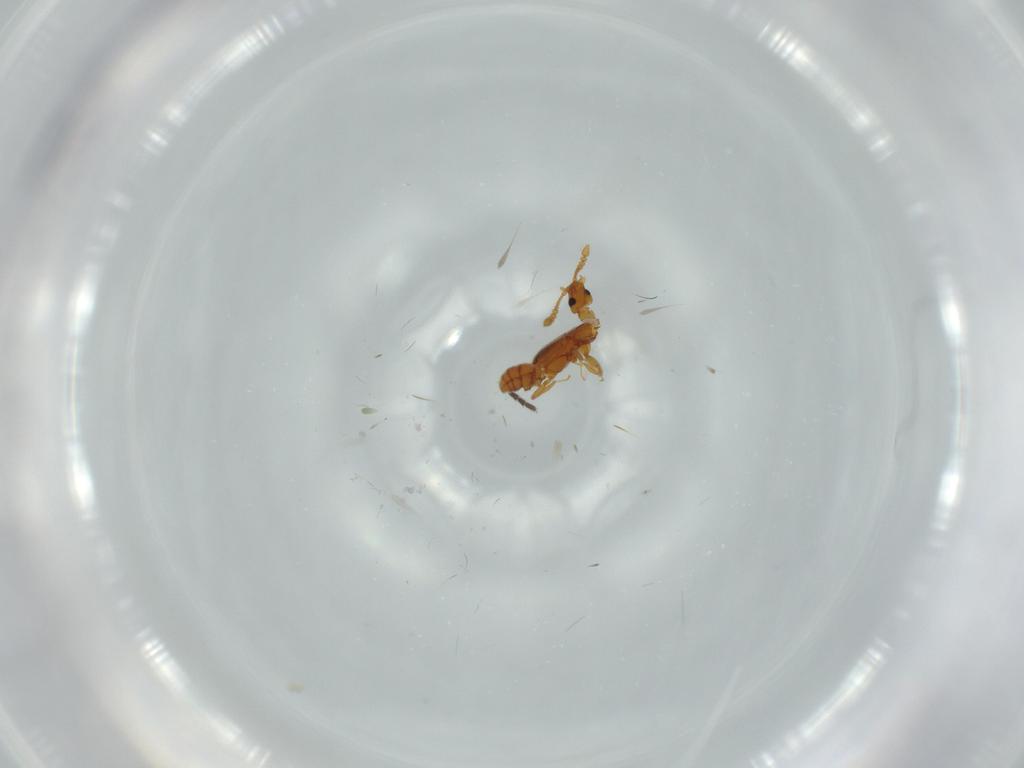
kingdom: Animalia
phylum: Arthropoda
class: Insecta
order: Coleoptera
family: Staphylinidae
